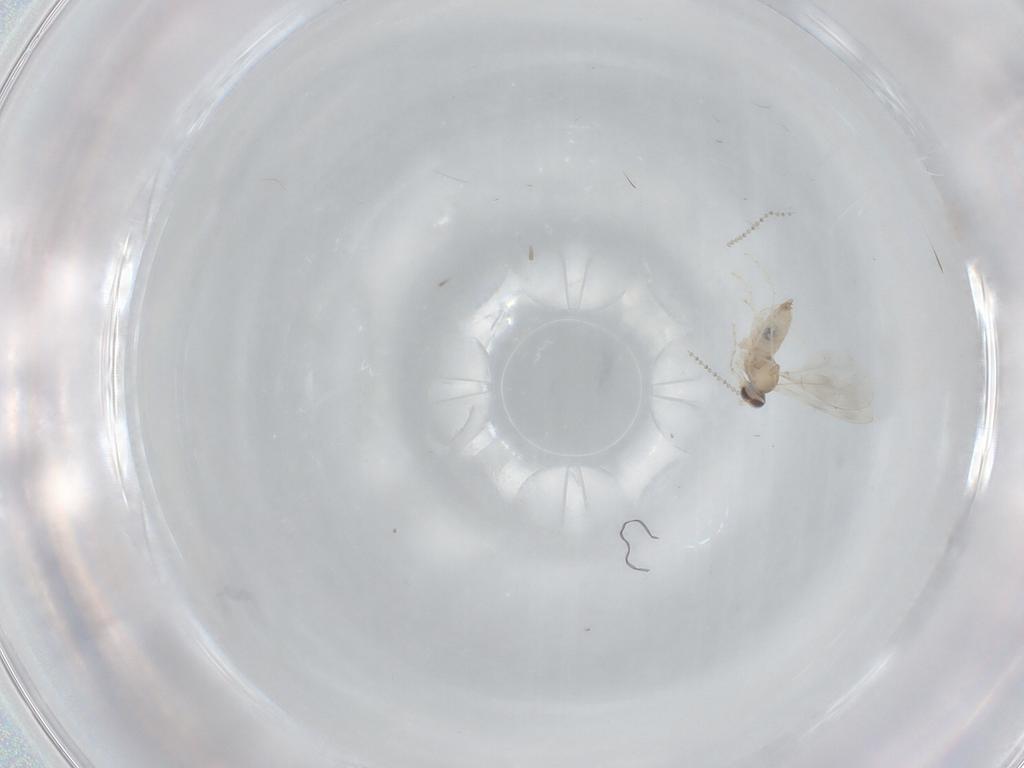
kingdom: Animalia
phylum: Arthropoda
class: Insecta
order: Diptera
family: Cecidomyiidae
